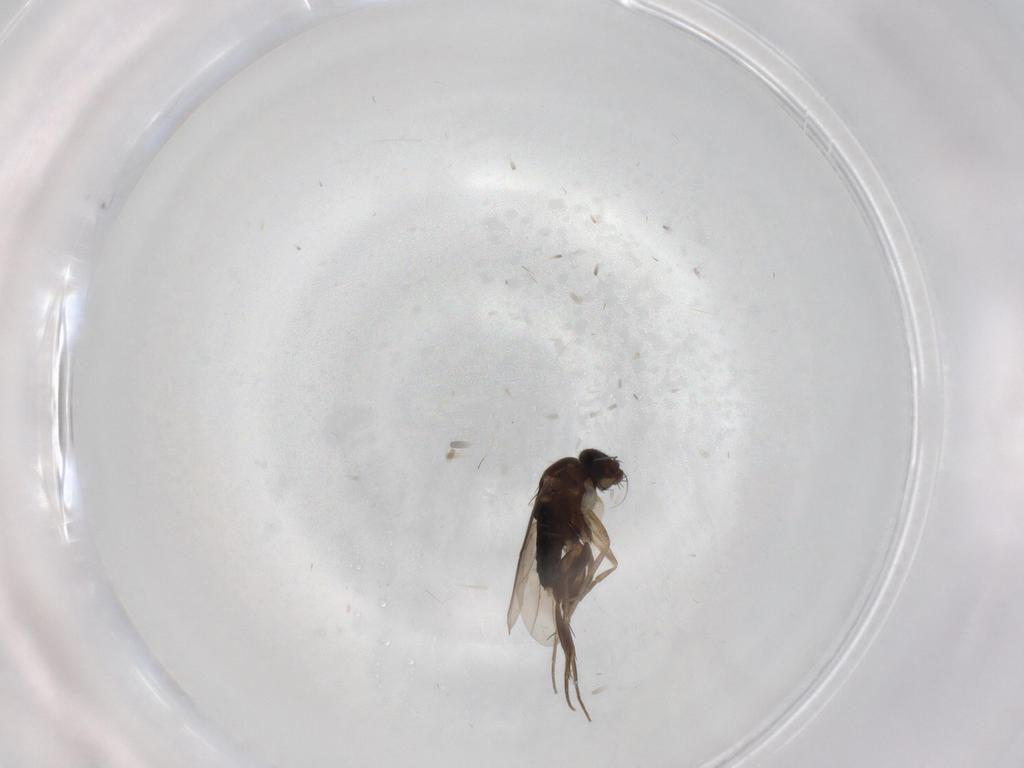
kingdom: Animalia
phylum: Arthropoda
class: Insecta
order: Diptera
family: Phoridae
